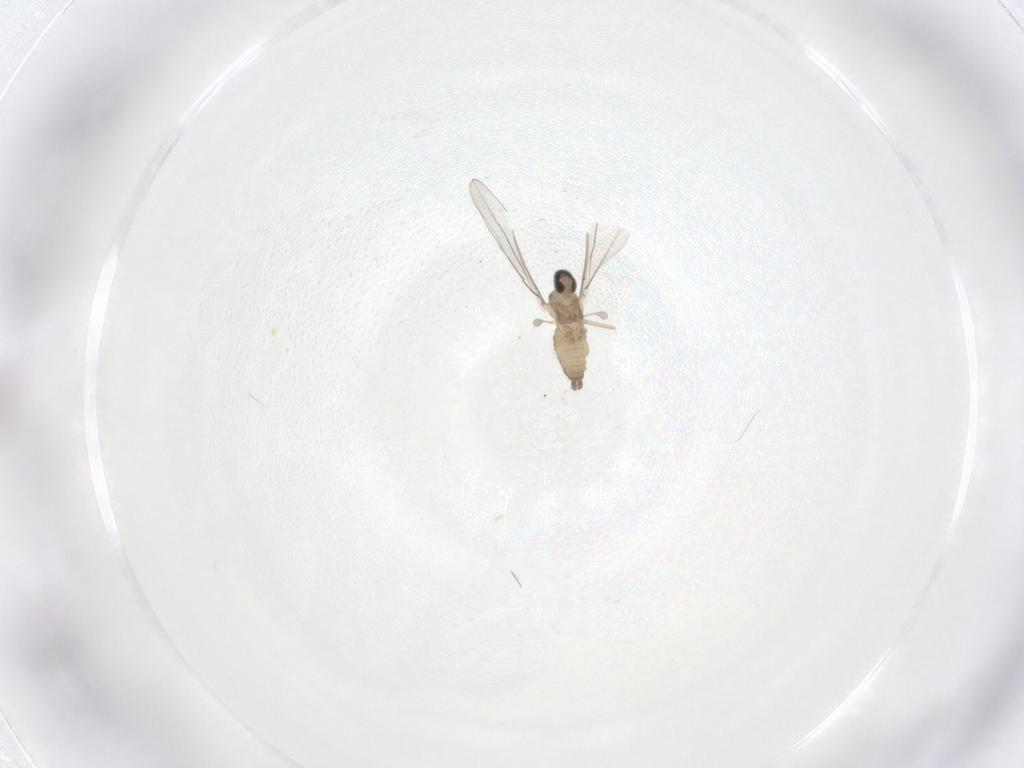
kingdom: Animalia
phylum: Arthropoda
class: Insecta
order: Diptera
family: Cecidomyiidae
